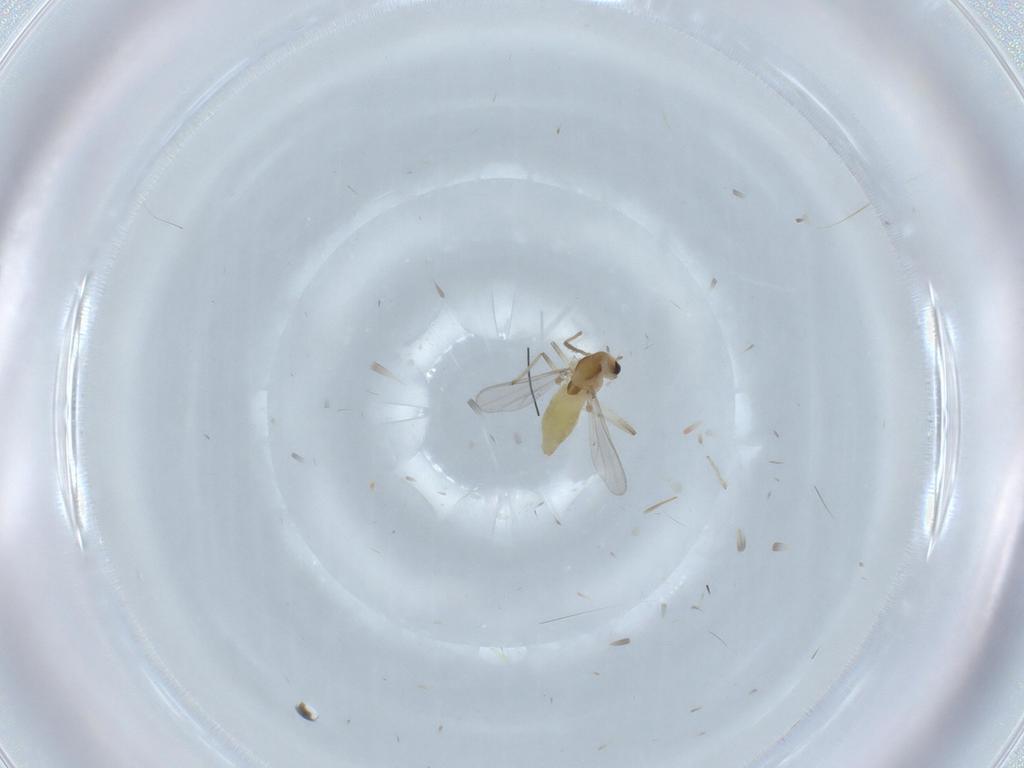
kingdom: Animalia
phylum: Arthropoda
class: Insecta
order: Diptera
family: Chironomidae
